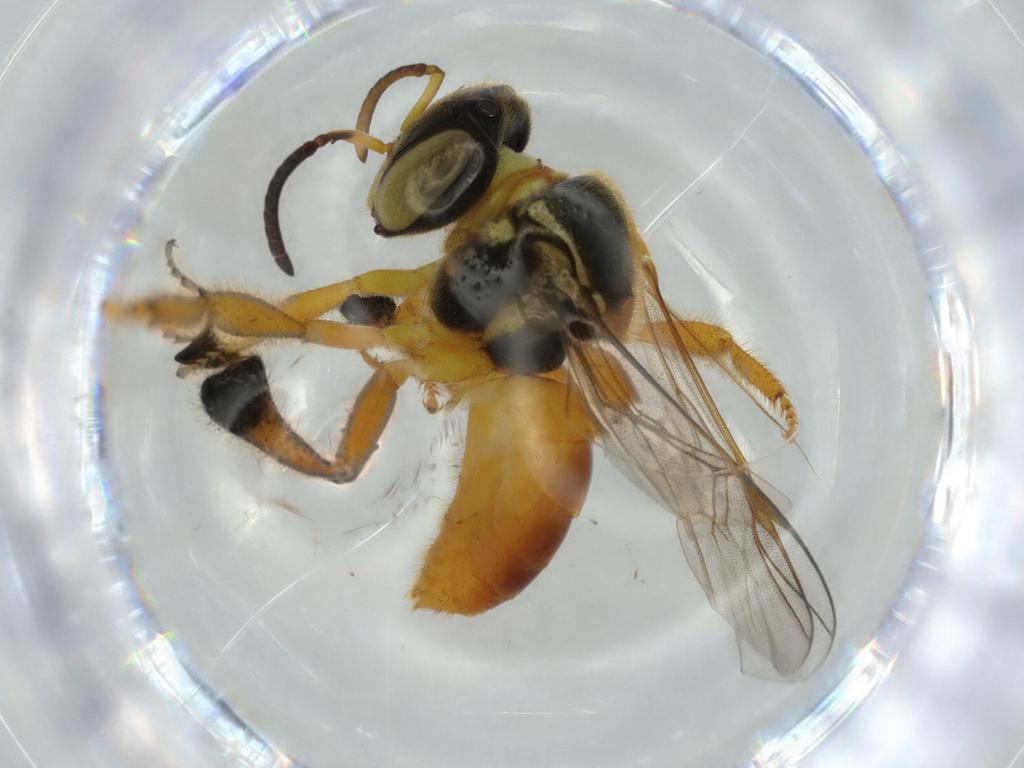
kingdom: Animalia
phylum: Arthropoda
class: Insecta
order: Hymenoptera
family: Apidae
